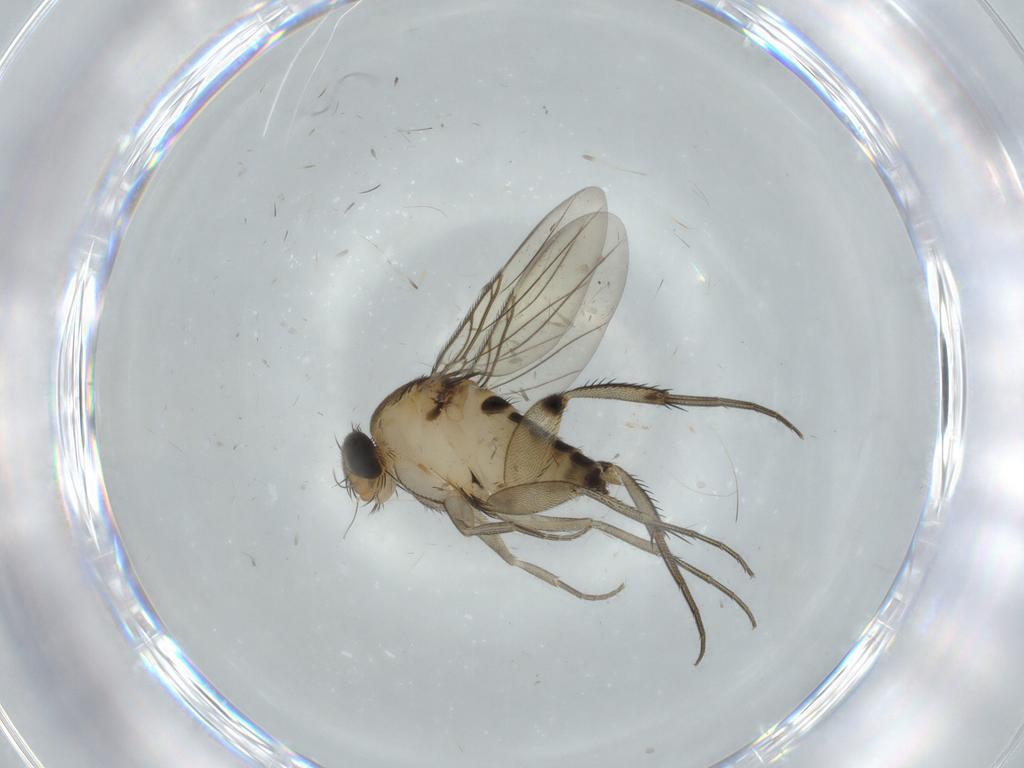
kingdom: Animalia
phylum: Arthropoda
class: Insecta
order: Diptera
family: Phoridae
